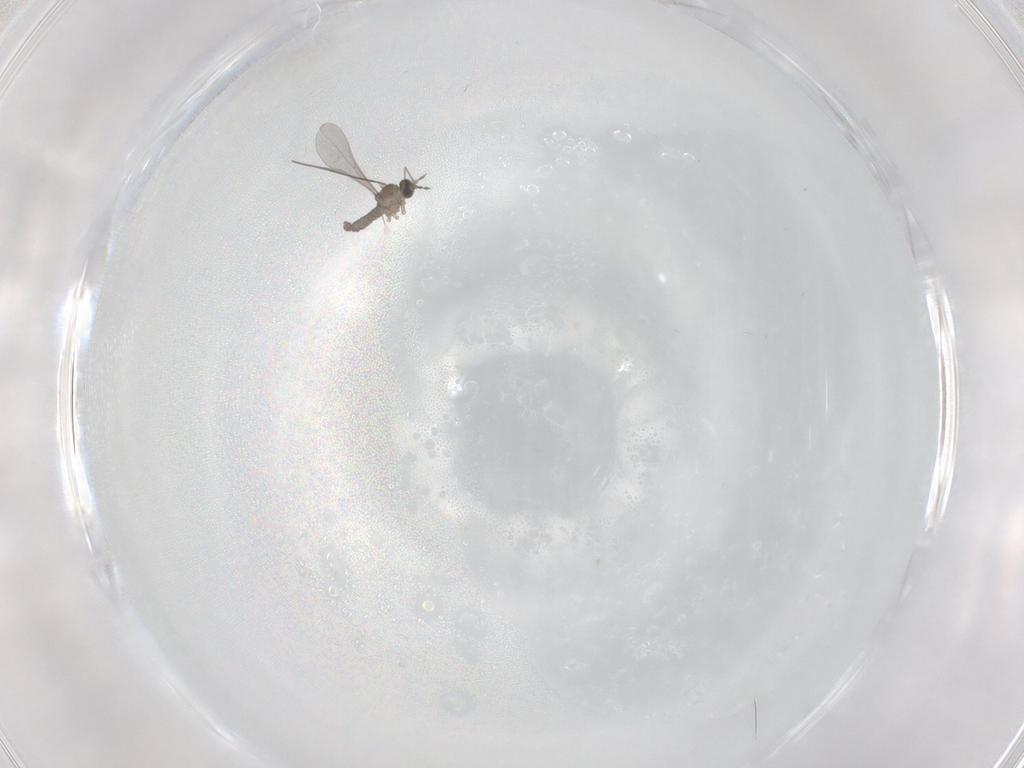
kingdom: Animalia
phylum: Arthropoda
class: Insecta
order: Diptera
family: Cecidomyiidae
